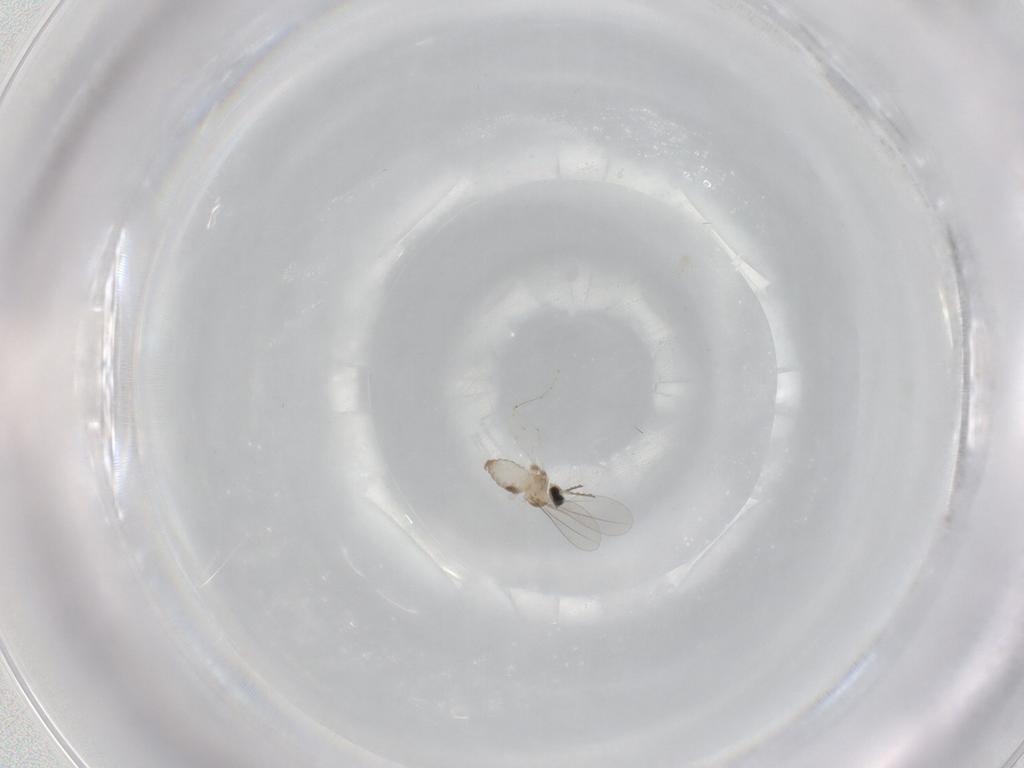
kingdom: Animalia
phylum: Arthropoda
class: Insecta
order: Diptera
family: Cecidomyiidae
